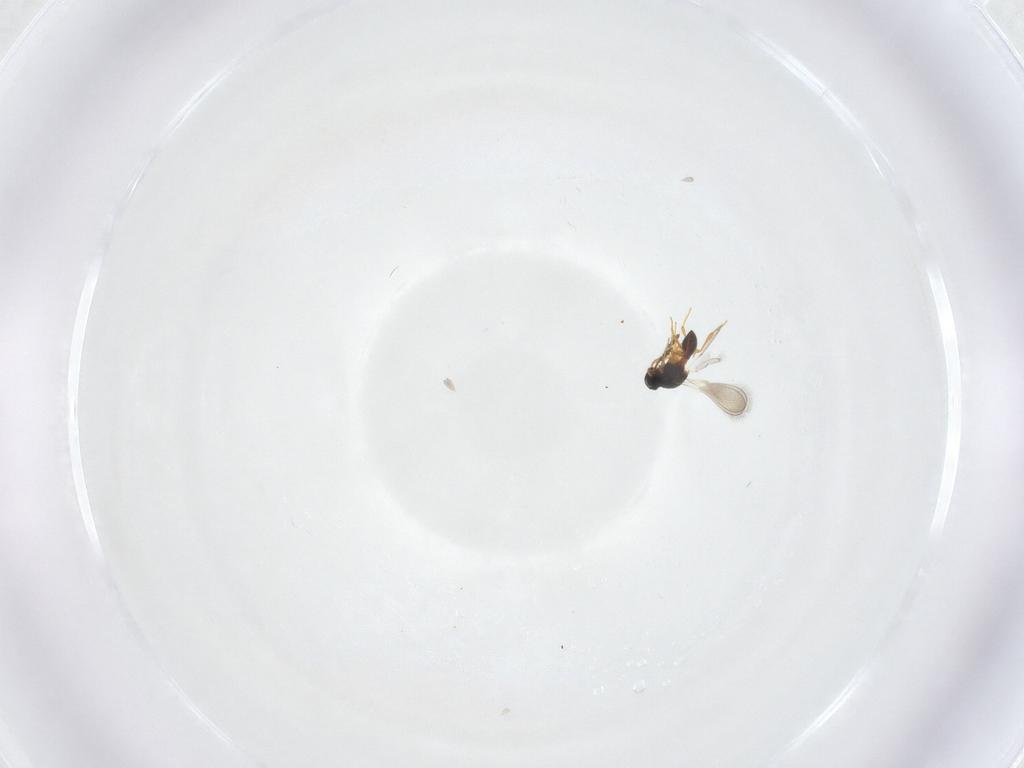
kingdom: Animalia
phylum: Arthropoda
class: Insecta
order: Hymenoptera
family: Platygastridae
